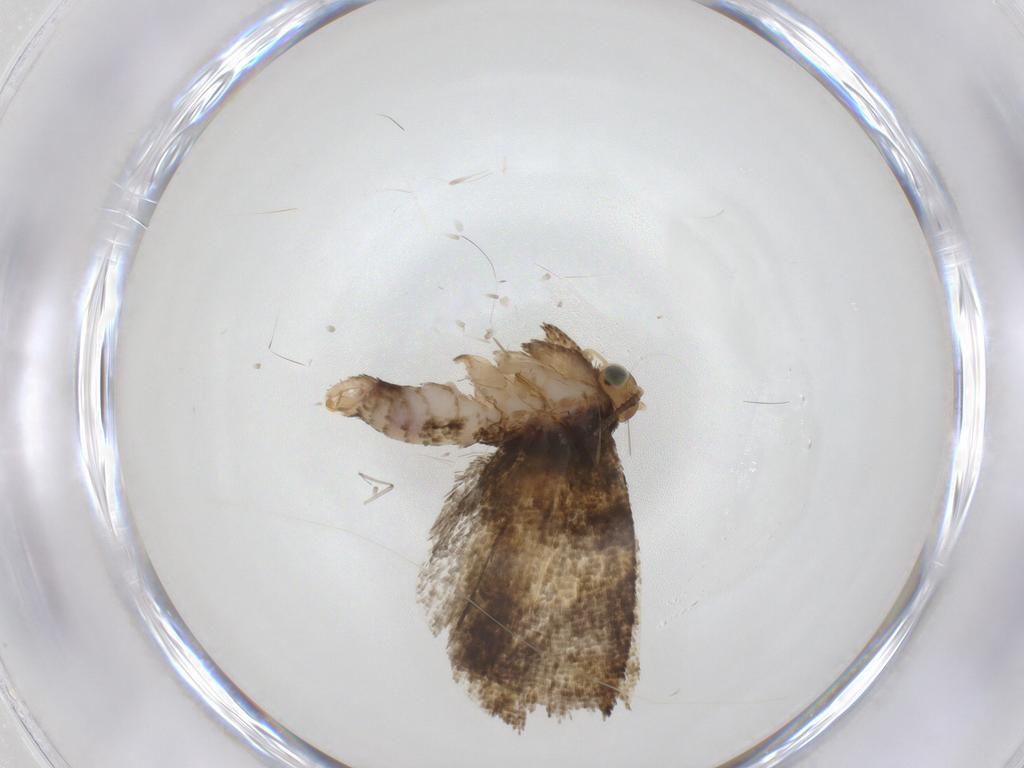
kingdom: Animalia
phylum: Arthropoda
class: Insecta
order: Lepidoptera
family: Tortricidae
